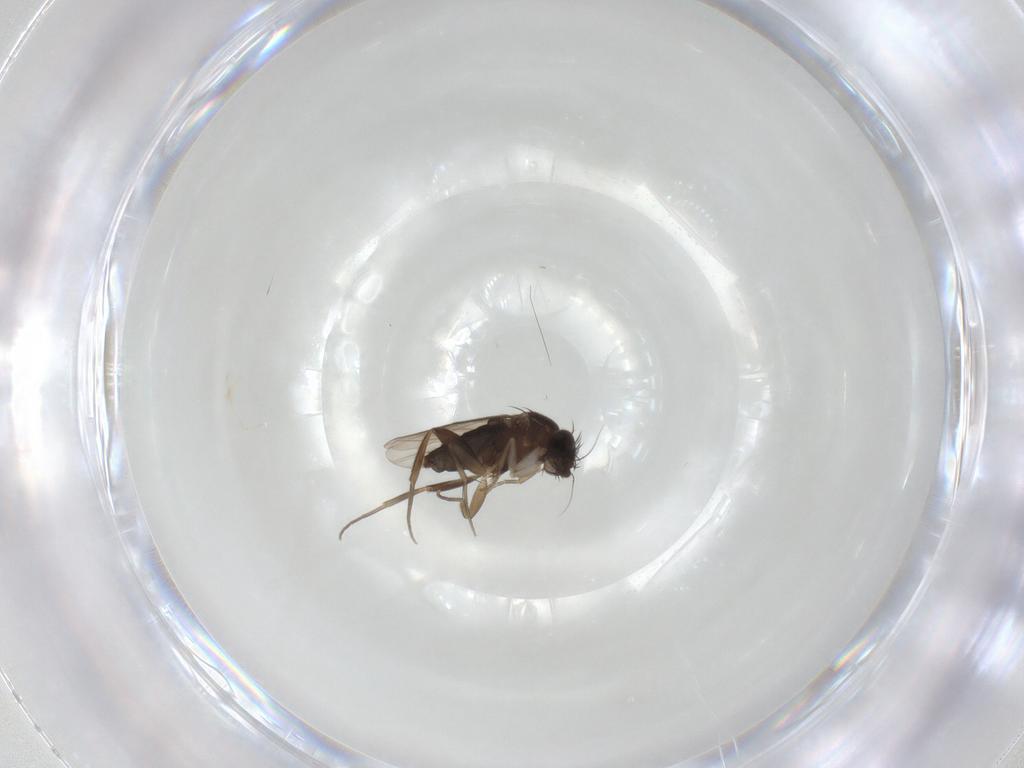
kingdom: Animalia
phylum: Arthropoda
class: Insecta
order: Diptera
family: Phoridae
